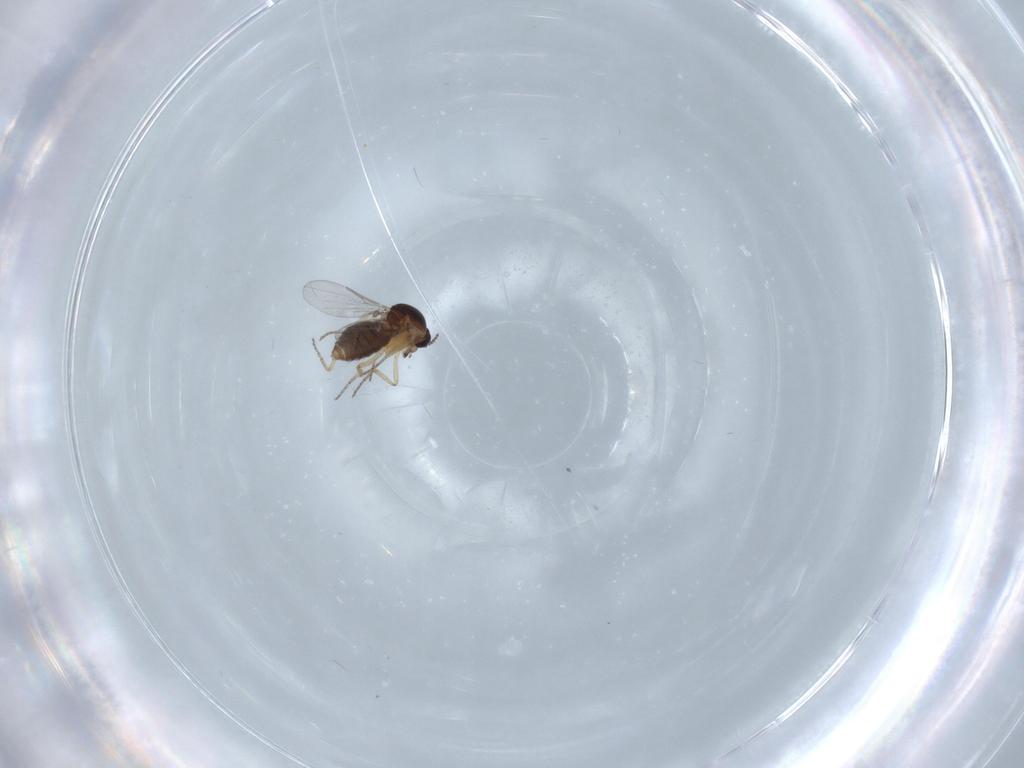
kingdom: Animalia
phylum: Arthropoda
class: Insecta
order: Diptera
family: Ceratopogonidae
